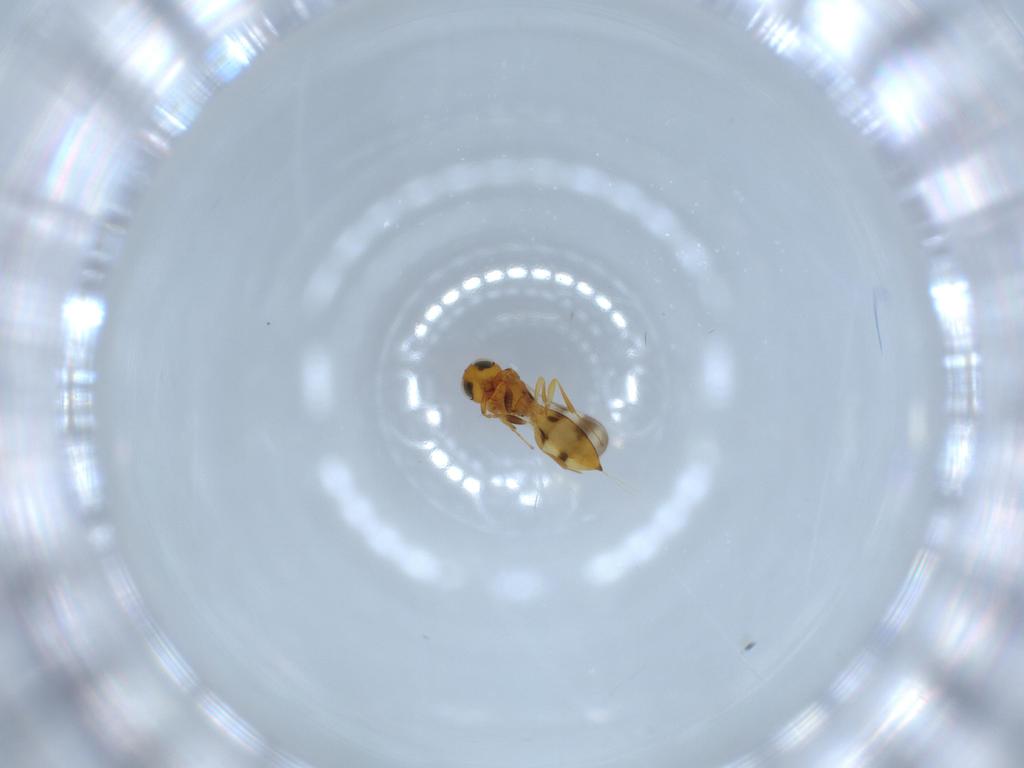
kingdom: Animalia
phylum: Arthropoda
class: Insecta
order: Hymenoptera
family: Scelionidae
